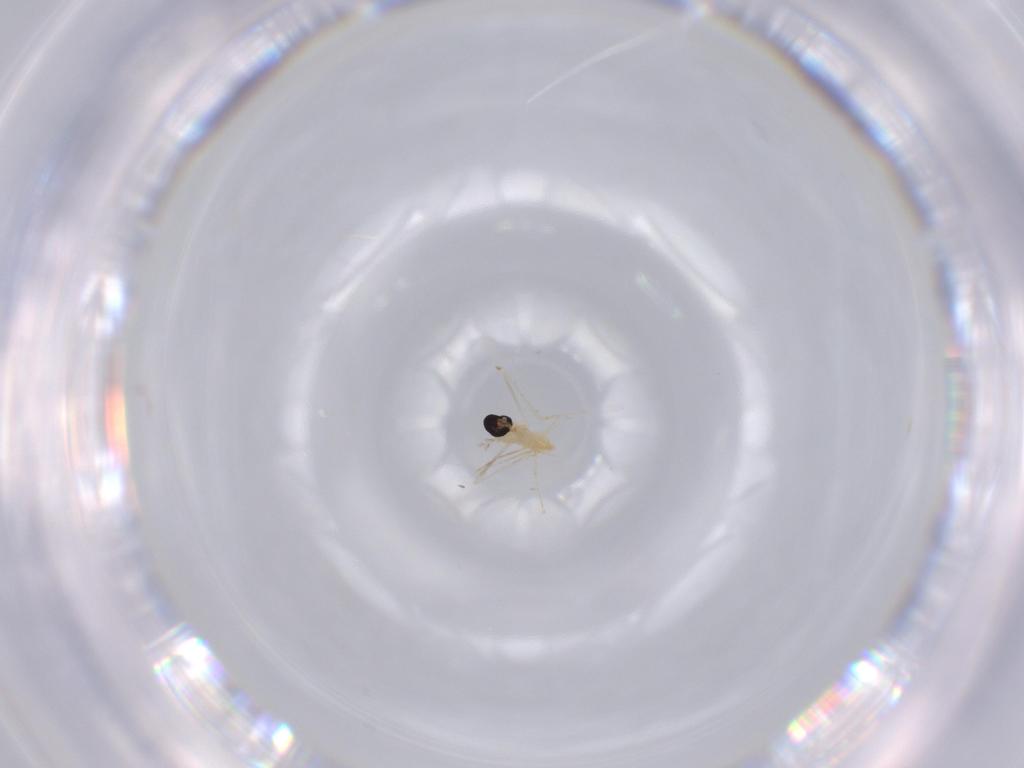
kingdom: Animalia
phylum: Arthropoda
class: Insecta
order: Diptera
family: Cecidomyiidae
